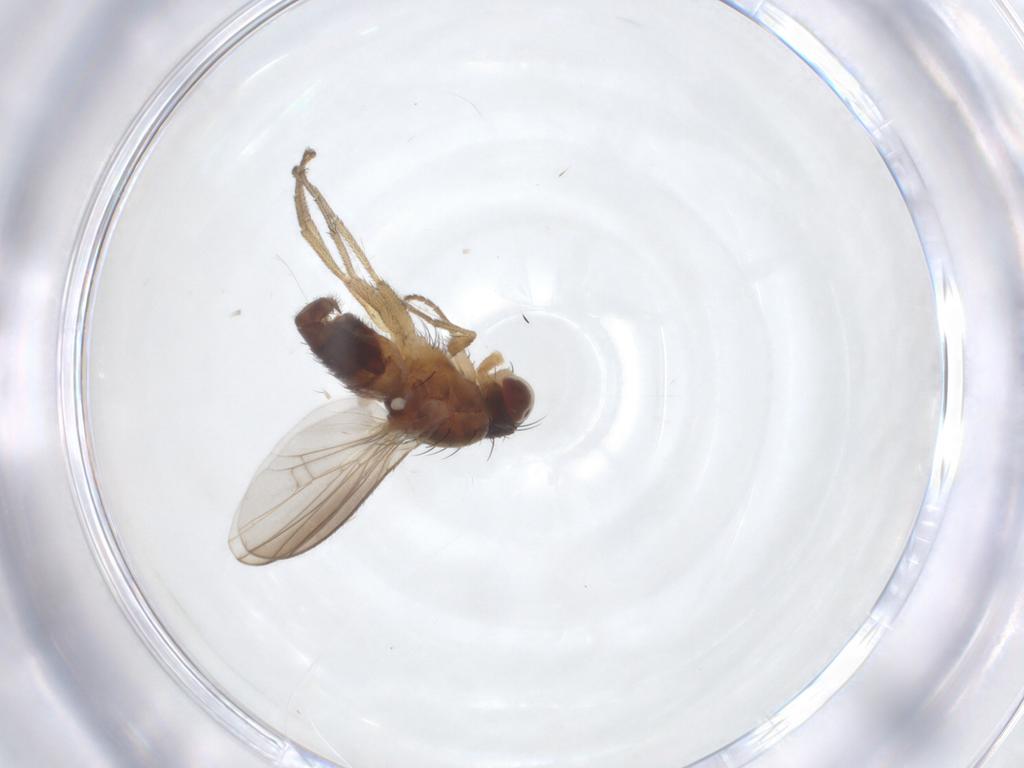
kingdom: Animalia
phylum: Arthropoda
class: Insecta
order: Diptera
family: Heleomyzidae
